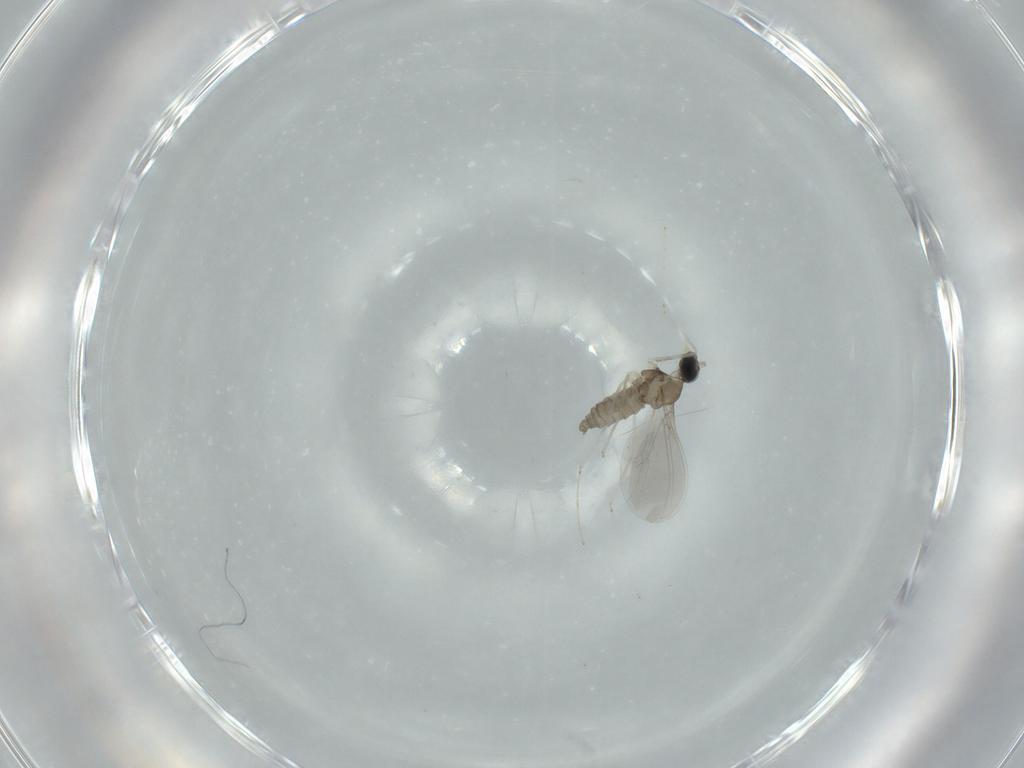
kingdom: Animalia
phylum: Arthropoda
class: Insecta
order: Diptera
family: Cecidomyiidae
